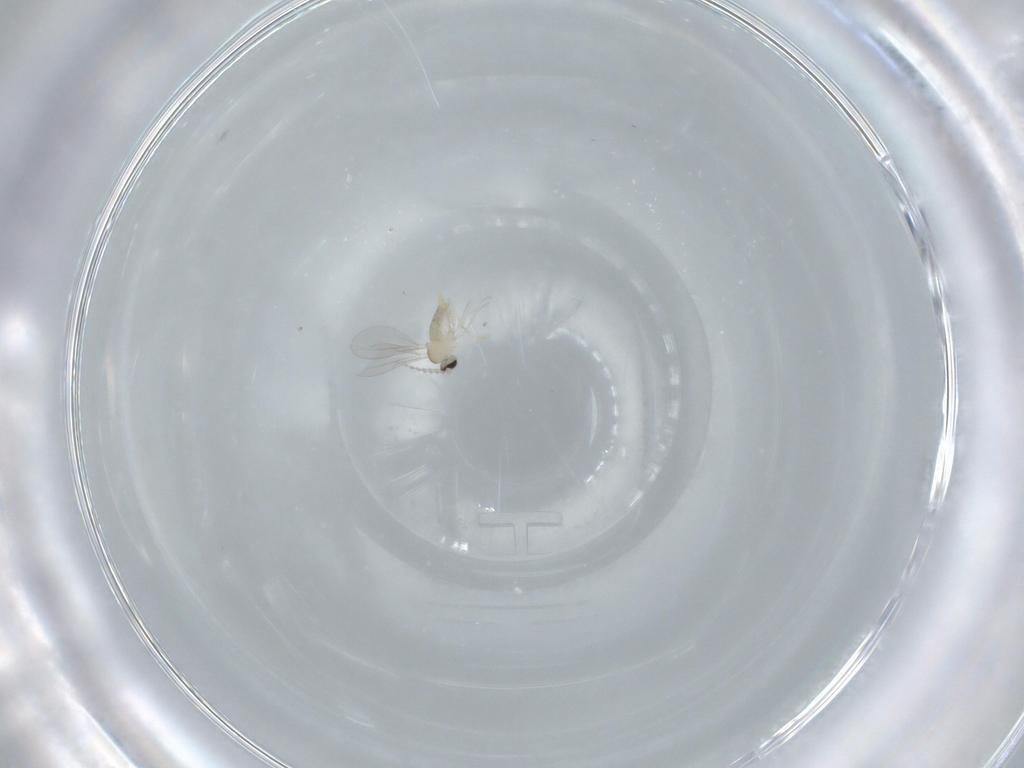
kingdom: Animalia
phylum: Arthropoda
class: Insecta
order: Diptera
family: Cecidomyiidae
